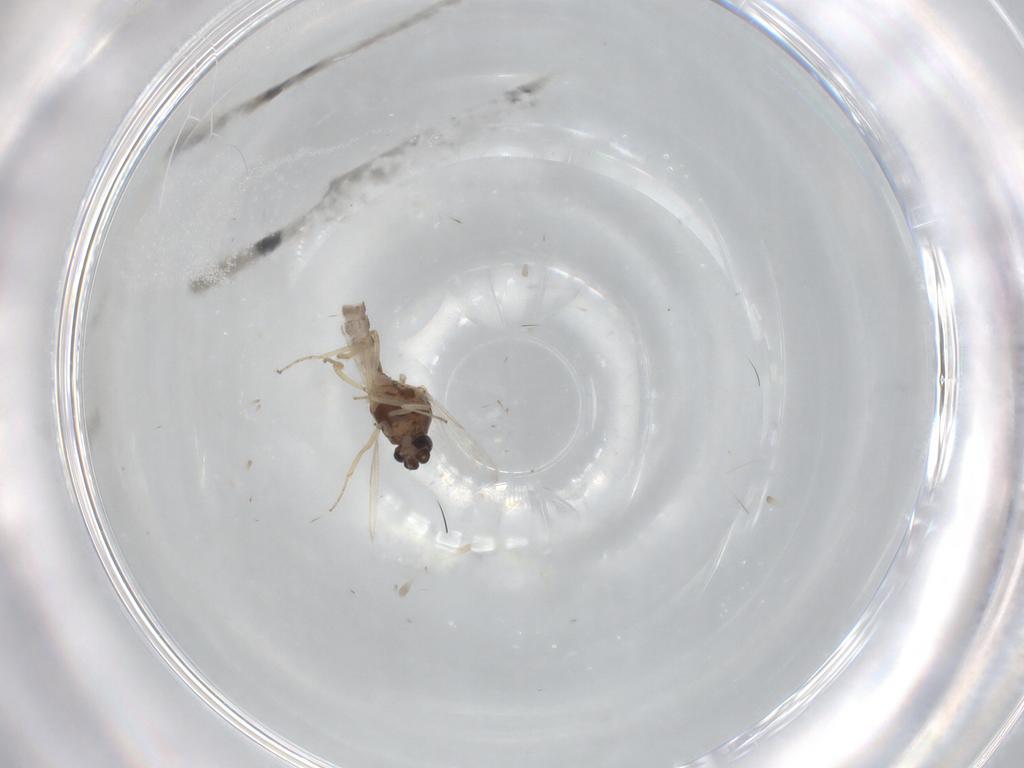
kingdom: Animalia
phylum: Arthropoda
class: Insecta
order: Diptera
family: Ceratopogonidae
